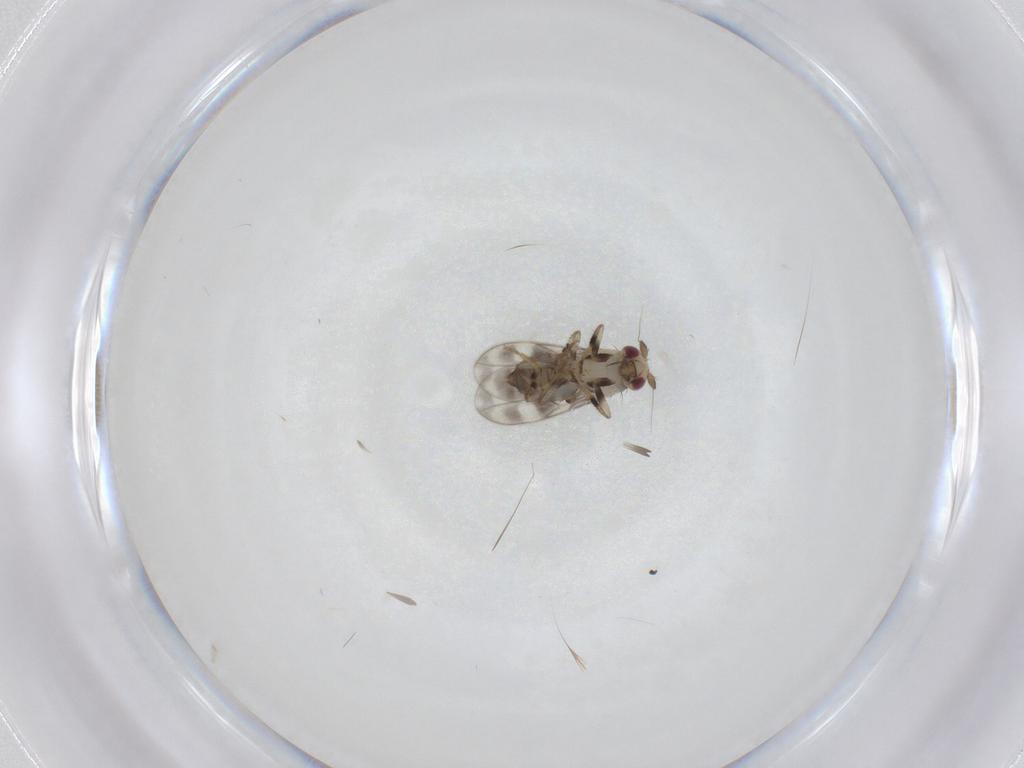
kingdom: Animalia
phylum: Arthropoda
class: Insecta
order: Diptera
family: Sphaeroceridae
